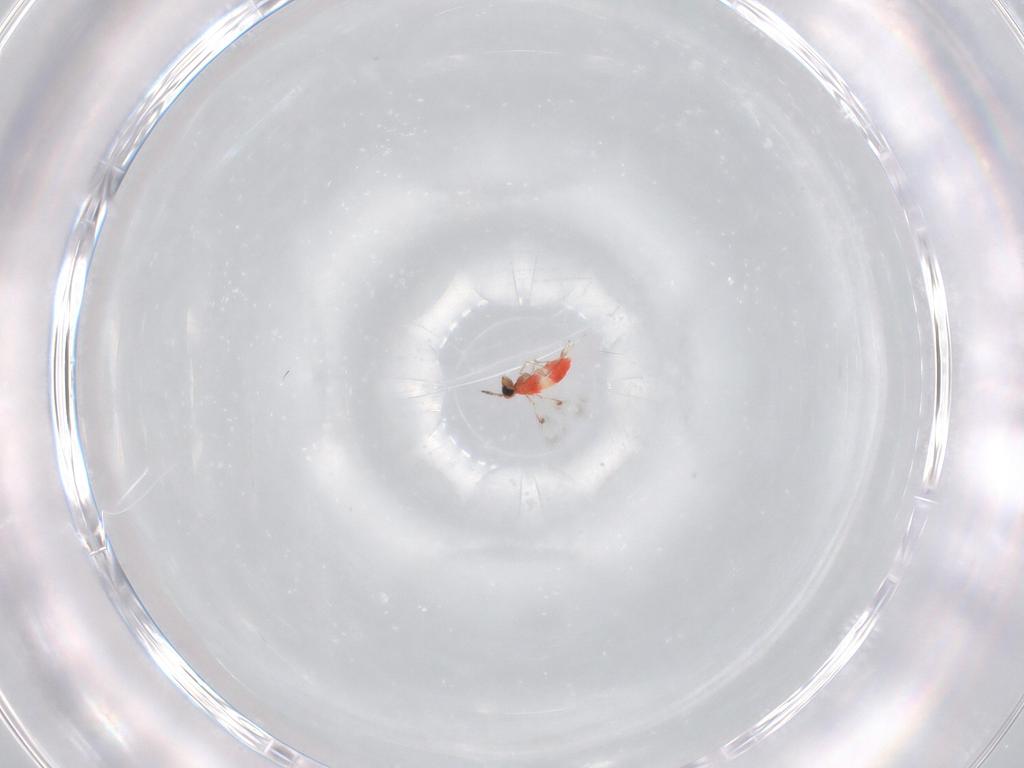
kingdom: Animalia
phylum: Arthropoda
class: Insecta
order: Hymenoptera
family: Trichogrammatidae
